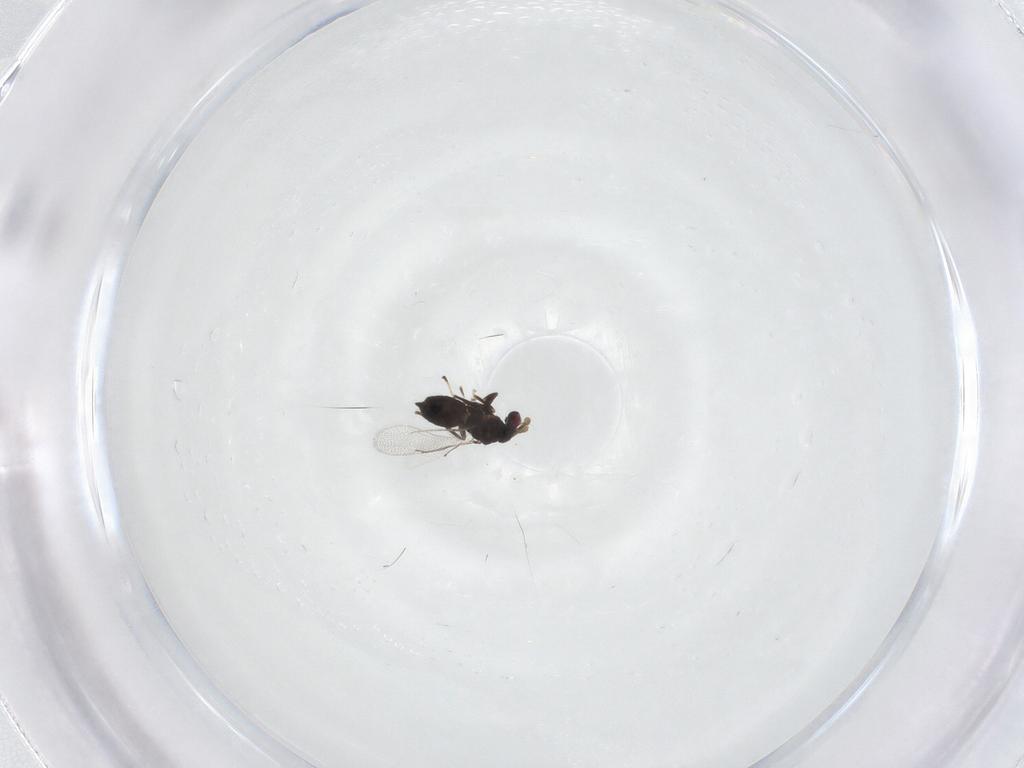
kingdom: Animalia
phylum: Arthropoda
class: Insecta
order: Hymenoptera
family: Eulophidae
